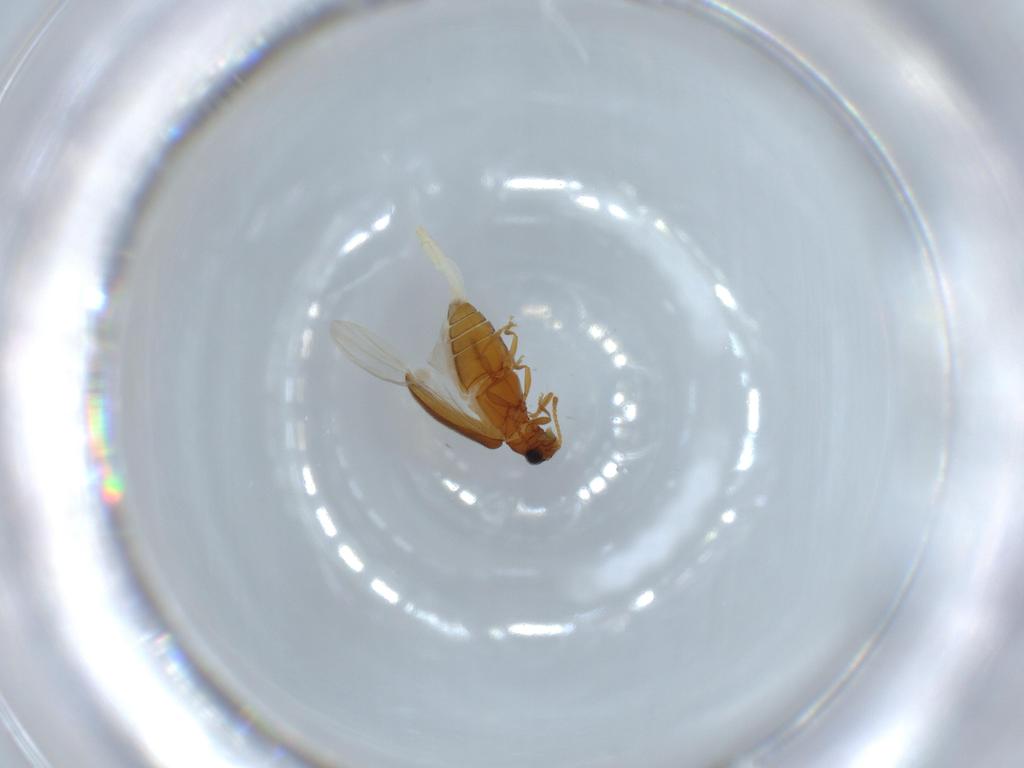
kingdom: Animalia
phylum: Arthropoda
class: Insecta
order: Coleoptera
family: Aderidae
